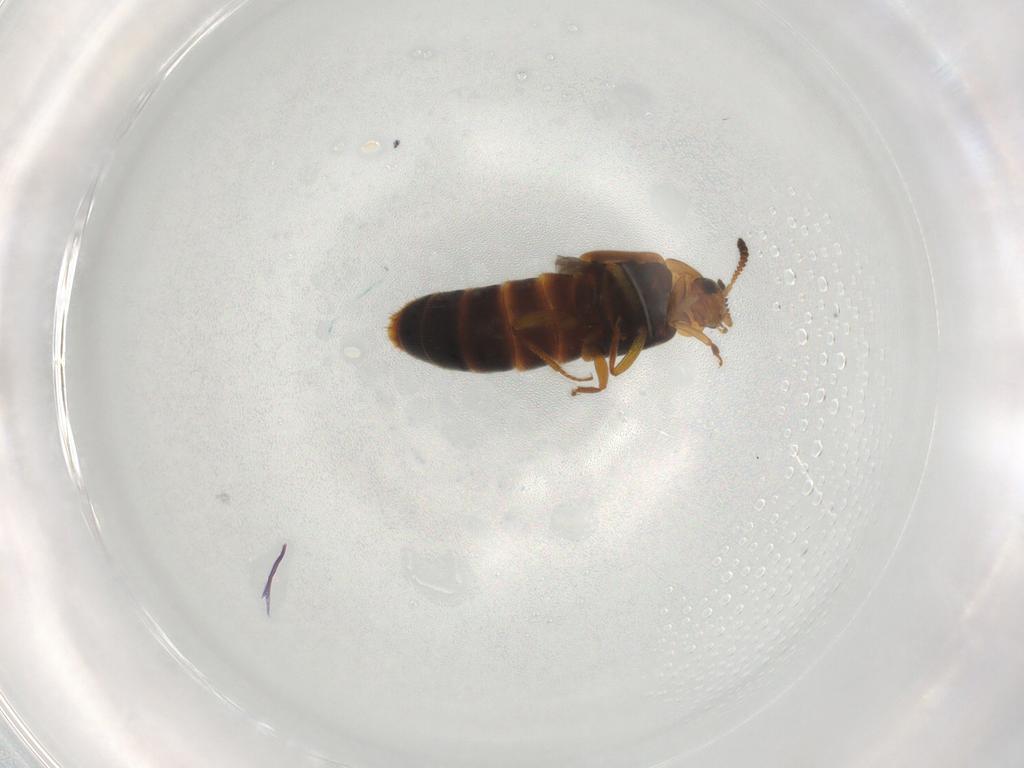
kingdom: Animalia
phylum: Arthropoda
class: Insecta
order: Coleoptera
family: Staphylinidae
